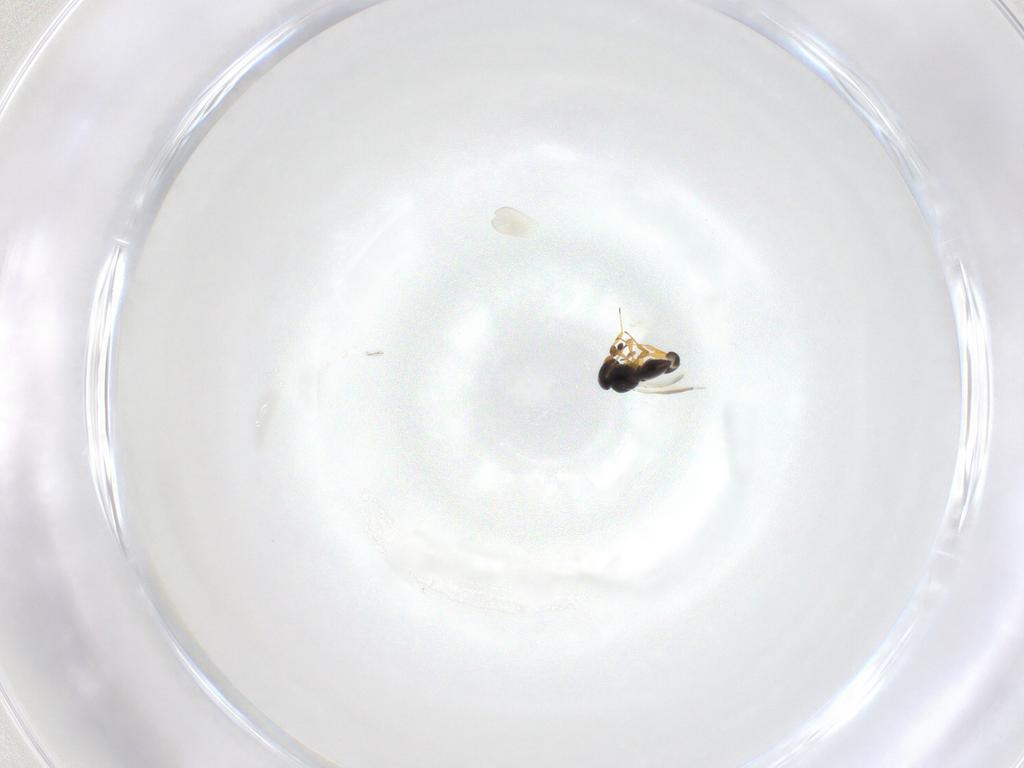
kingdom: Animalia
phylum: Arthropoda
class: Insecta
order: Hymenoptera
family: Platygastridae
